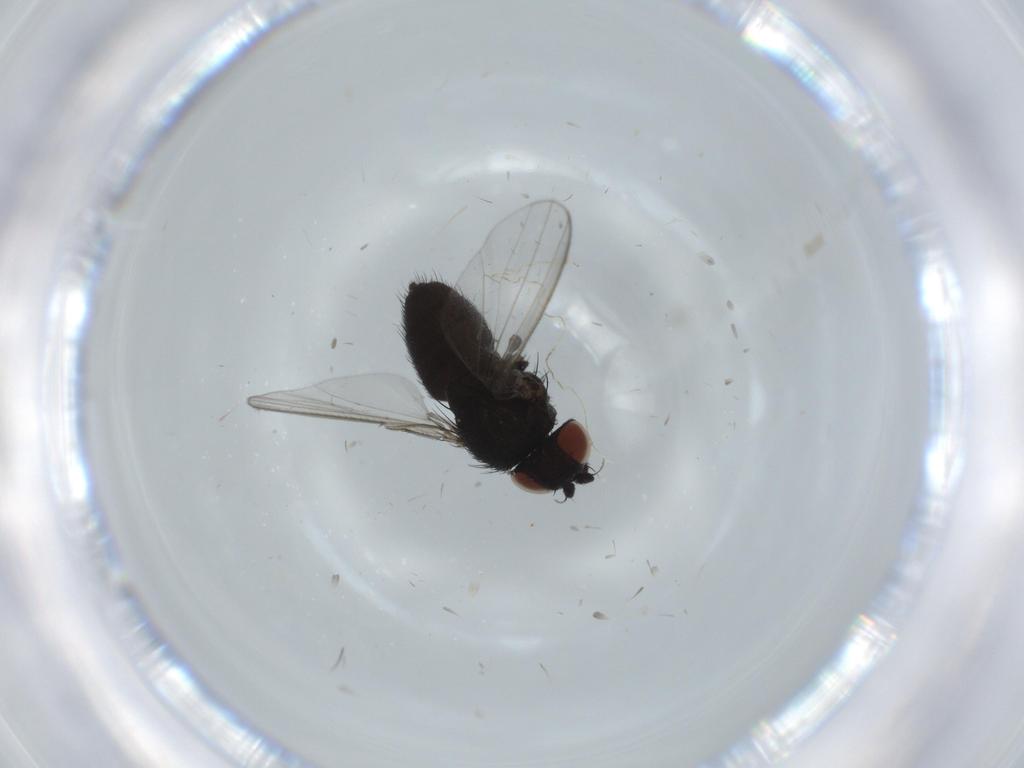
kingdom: Animalia
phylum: Arthropoda
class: Insecta
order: Diptera
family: Milichiidae
